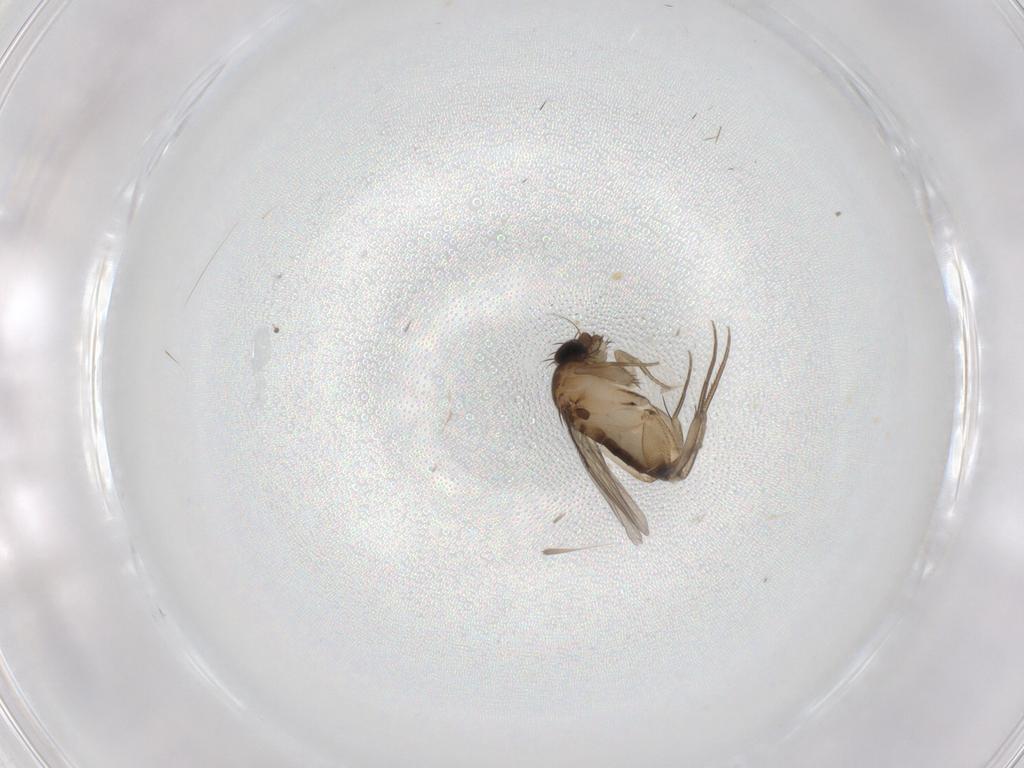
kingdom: Animalia
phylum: Arthropoda
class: Insecta
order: Diptera
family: Phoridae
